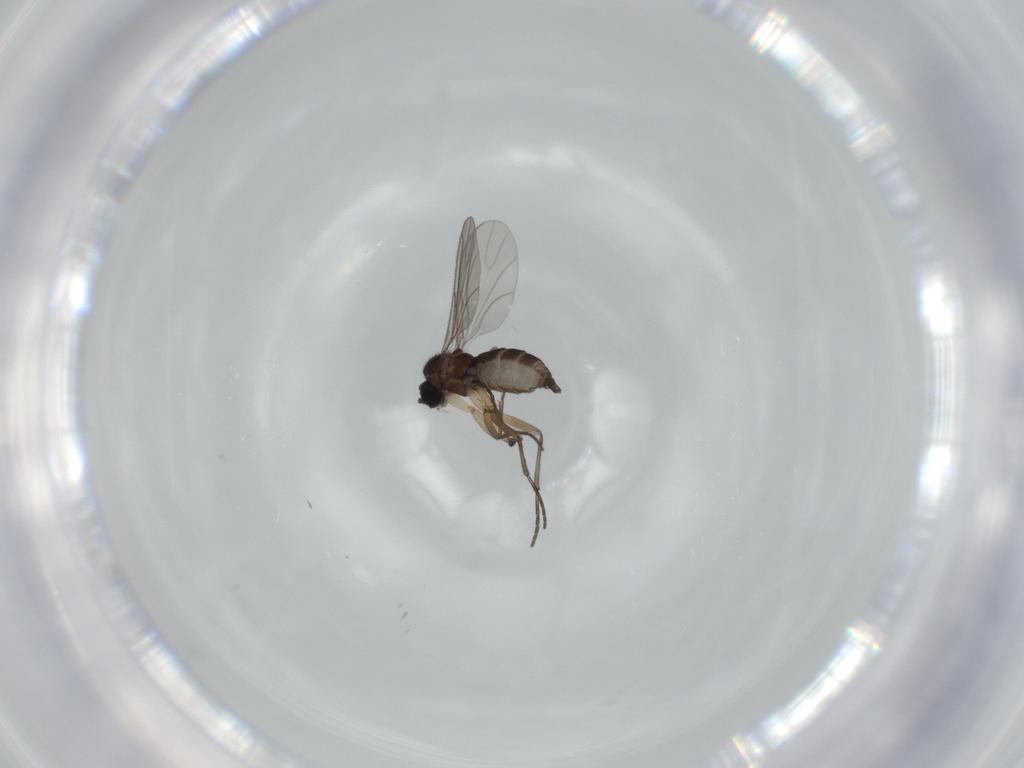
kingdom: Animalia
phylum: Arthropoda
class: Insecta
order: Diptera
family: Sciaridae
